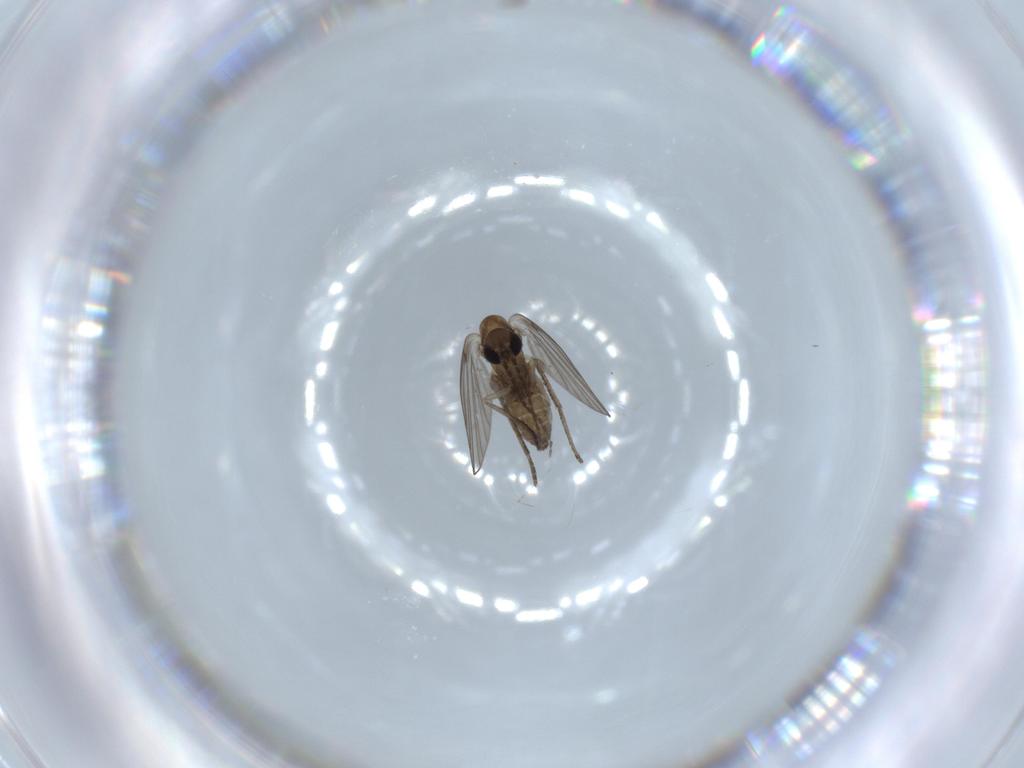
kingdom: Animalia
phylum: Arthropoda
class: Insecta
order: Diptera
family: Psychodidae
